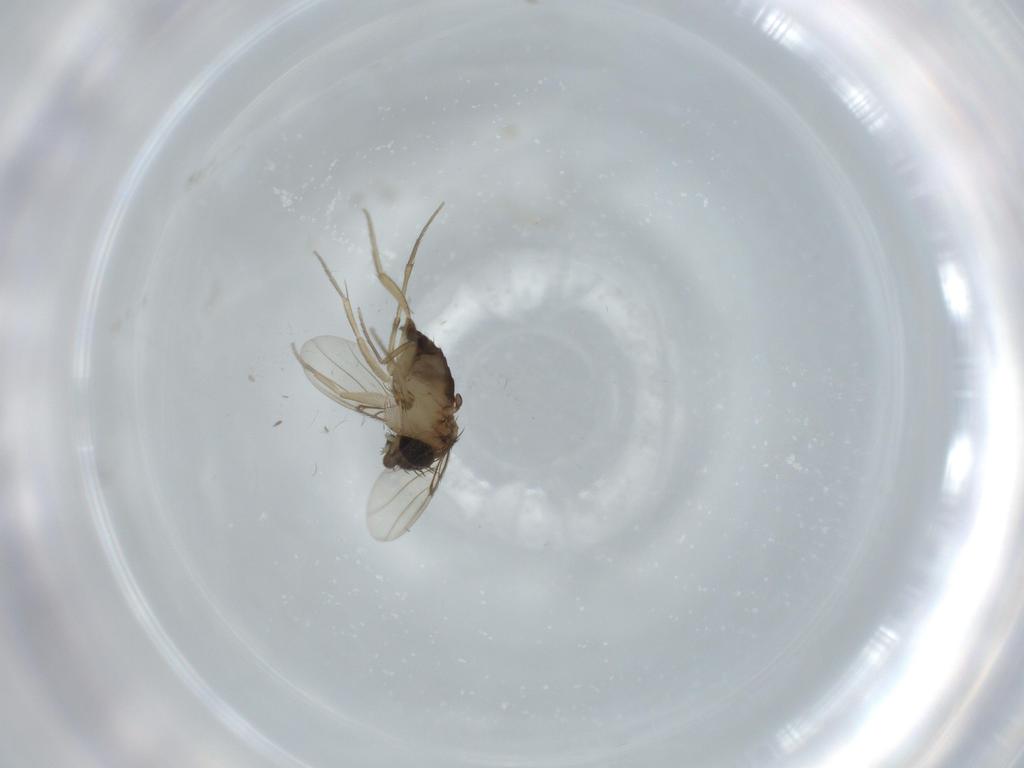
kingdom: Animalia
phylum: Arthropoda
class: Insecta
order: Diptera
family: Phoridae
